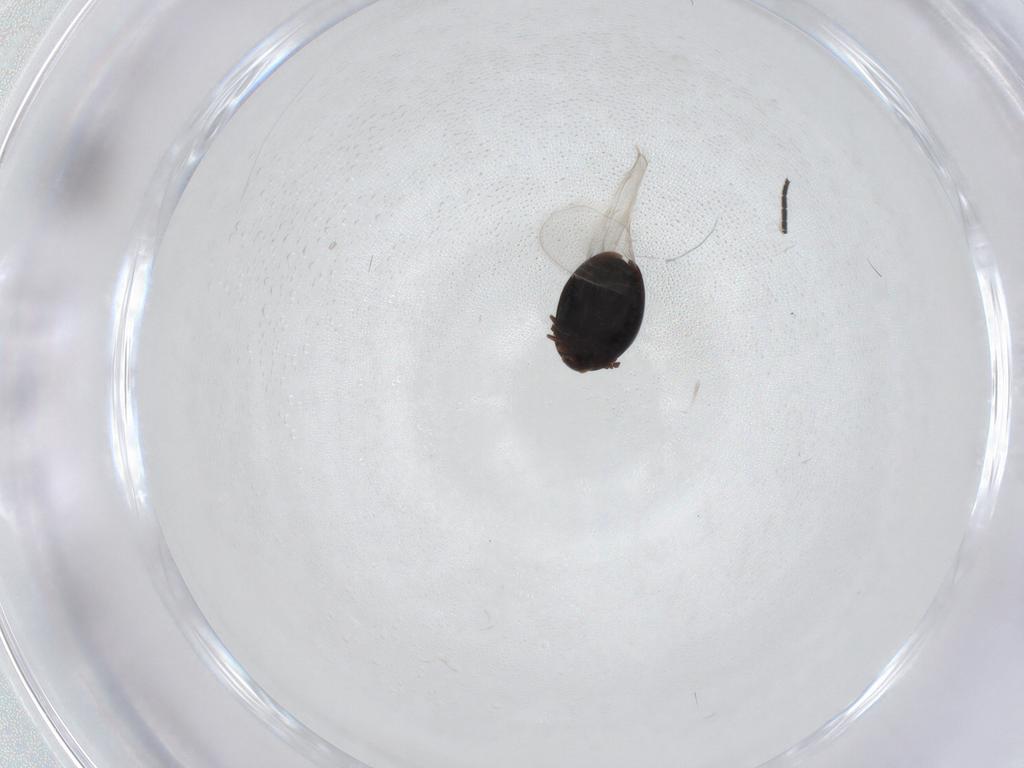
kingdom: Animalia
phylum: Arthropoda
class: Insecta
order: Coleoptera
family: Corylophidae
